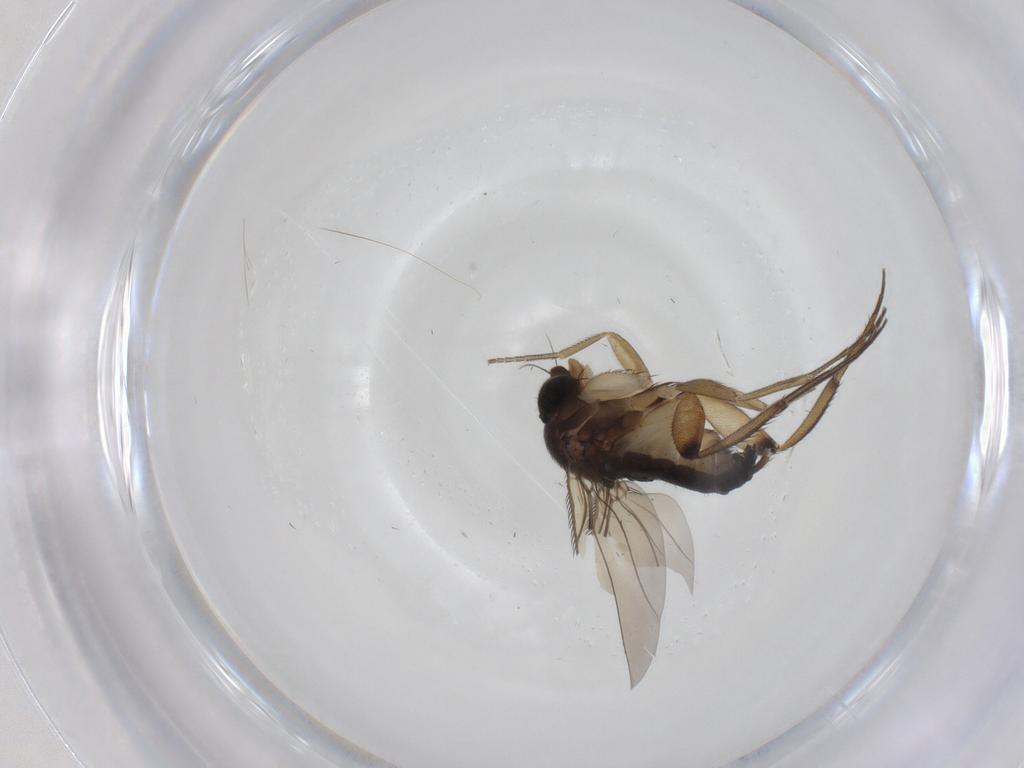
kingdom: Animalia
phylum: Arthropoda
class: Insecta
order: Diptera
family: Phoridae
